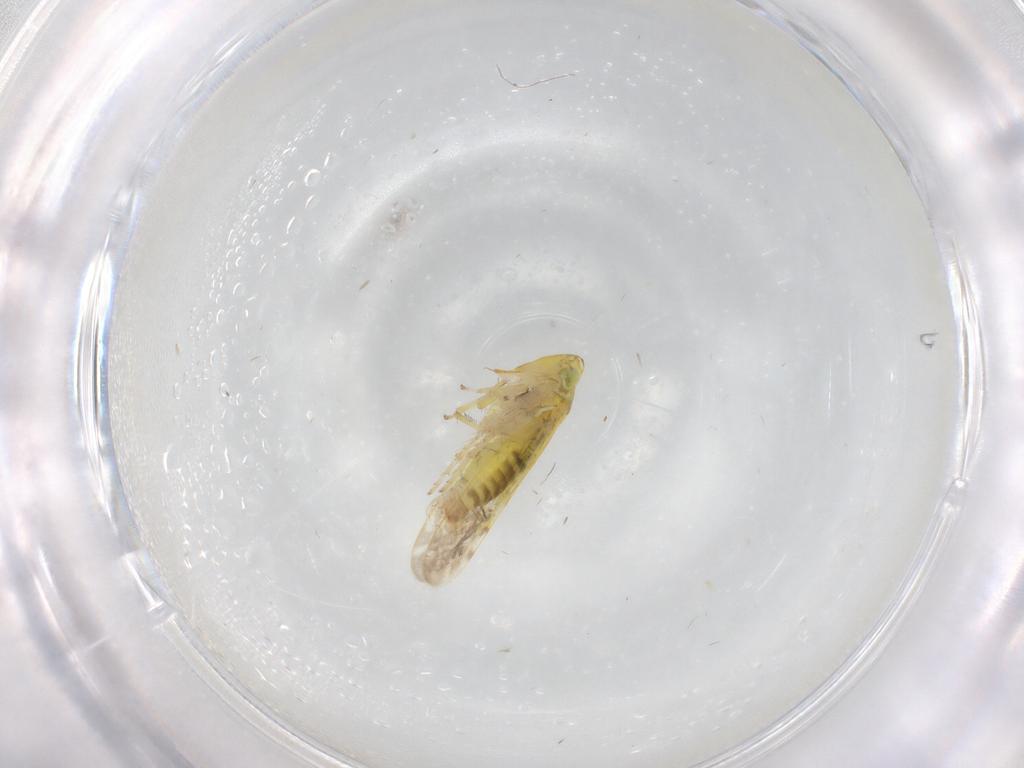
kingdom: Animalia
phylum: Arthropoda
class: Insecta
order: Hemiptera
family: Cicadellidae
